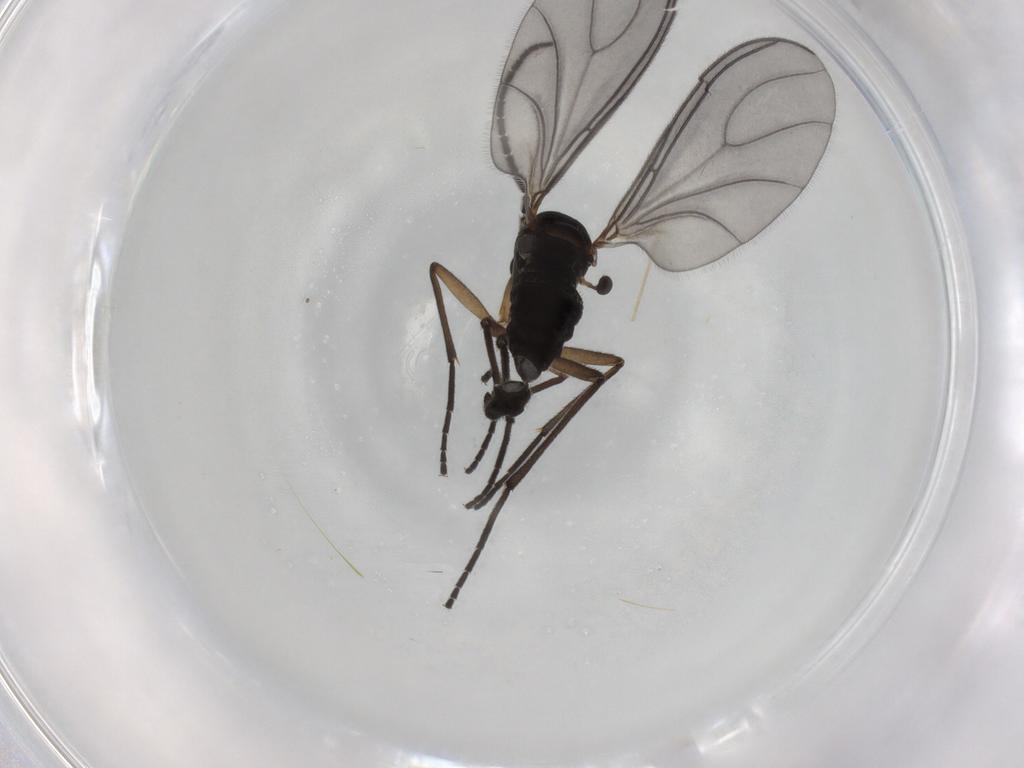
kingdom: Animalia
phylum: Arthropoda
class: Insecta
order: Diptera
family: Sciaridae
